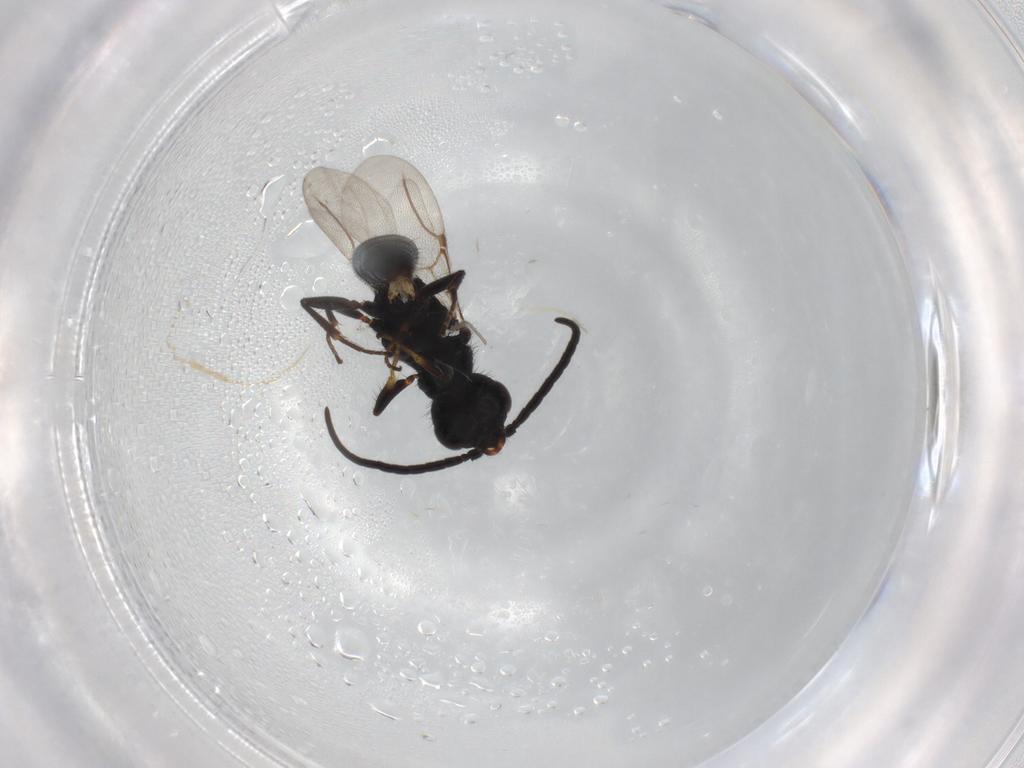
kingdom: Animalia
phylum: Arthropoda
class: Insecta
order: Hymenoptera
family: Bethylidae
